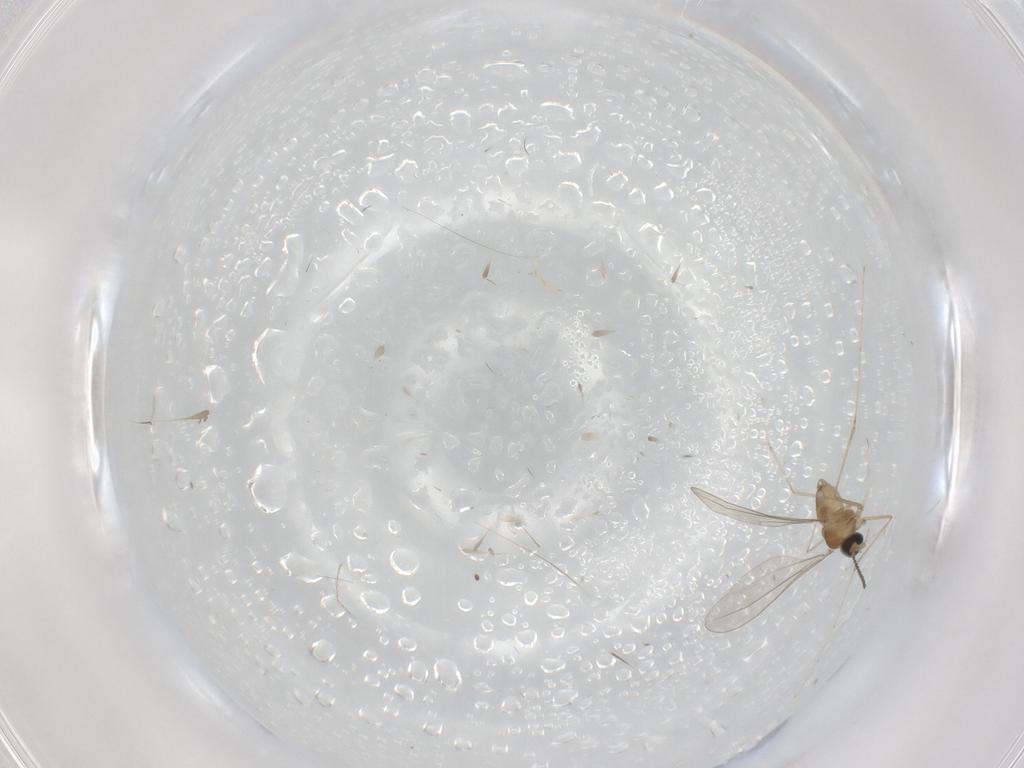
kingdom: Animalia
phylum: Arthropoda
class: Insecta
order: Diptera
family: Cecidomyiidae
